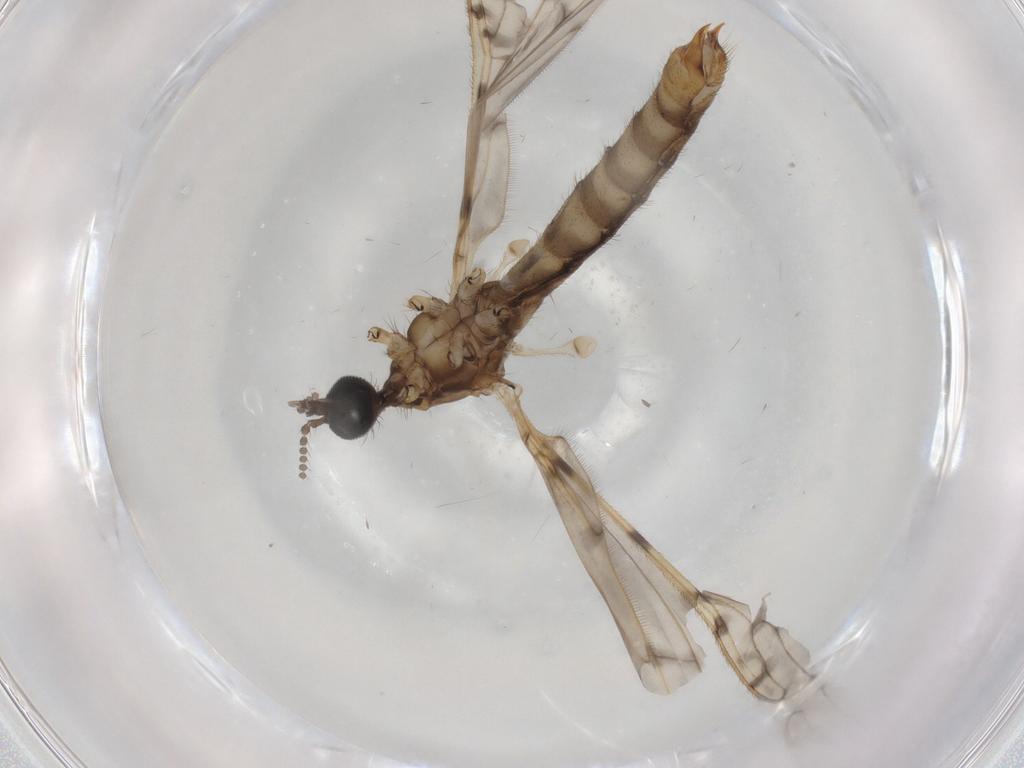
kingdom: Animalia
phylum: Arthropoda
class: Insecta
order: Diptera
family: Limoniidae
